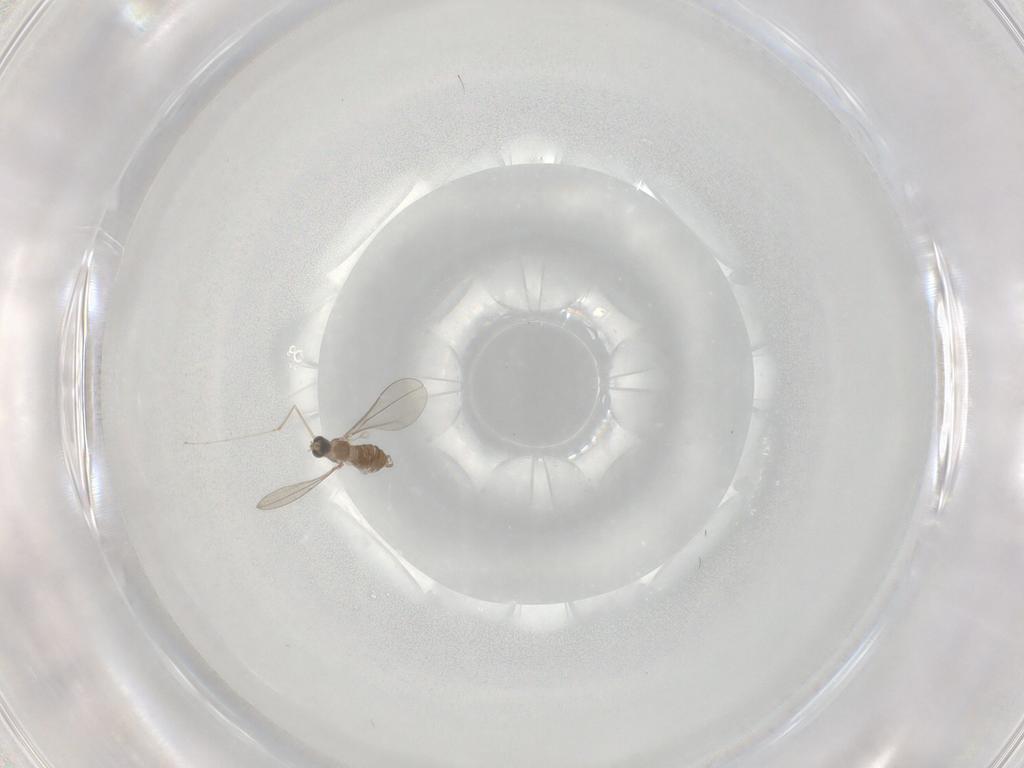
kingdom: Animalia
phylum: Arthropoda
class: Insecta
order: Diptera
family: Cecidomyiidae
